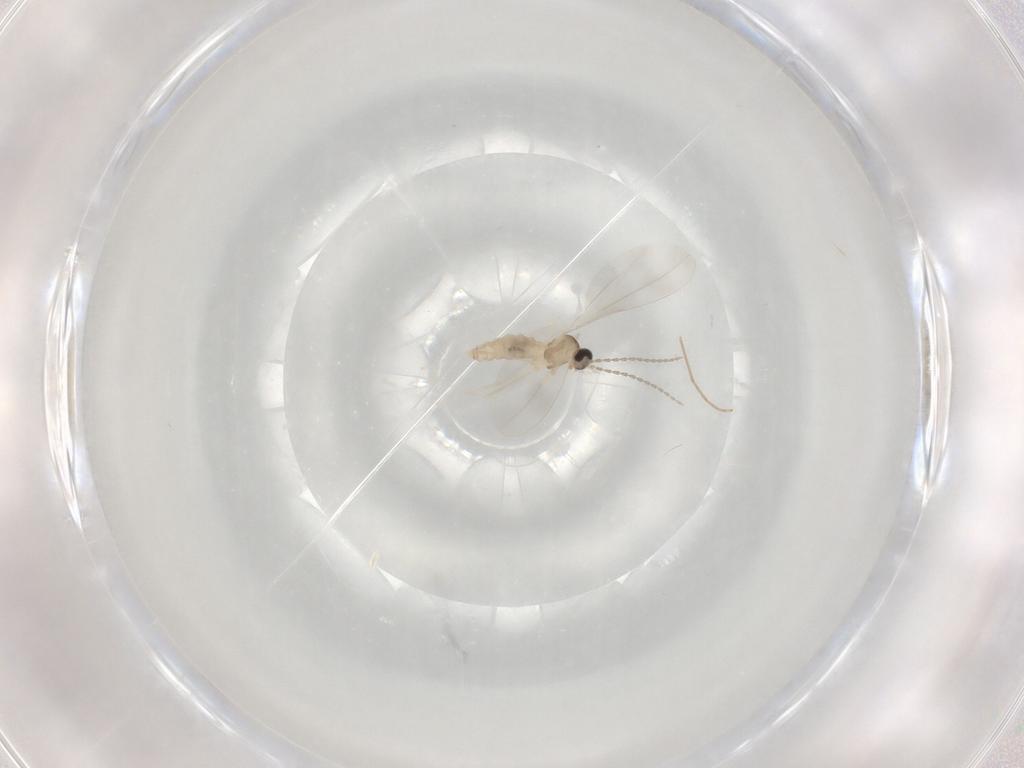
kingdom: Animalia
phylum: Arthropoda
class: Insecta
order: Diptera
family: Cecidomyiidae
